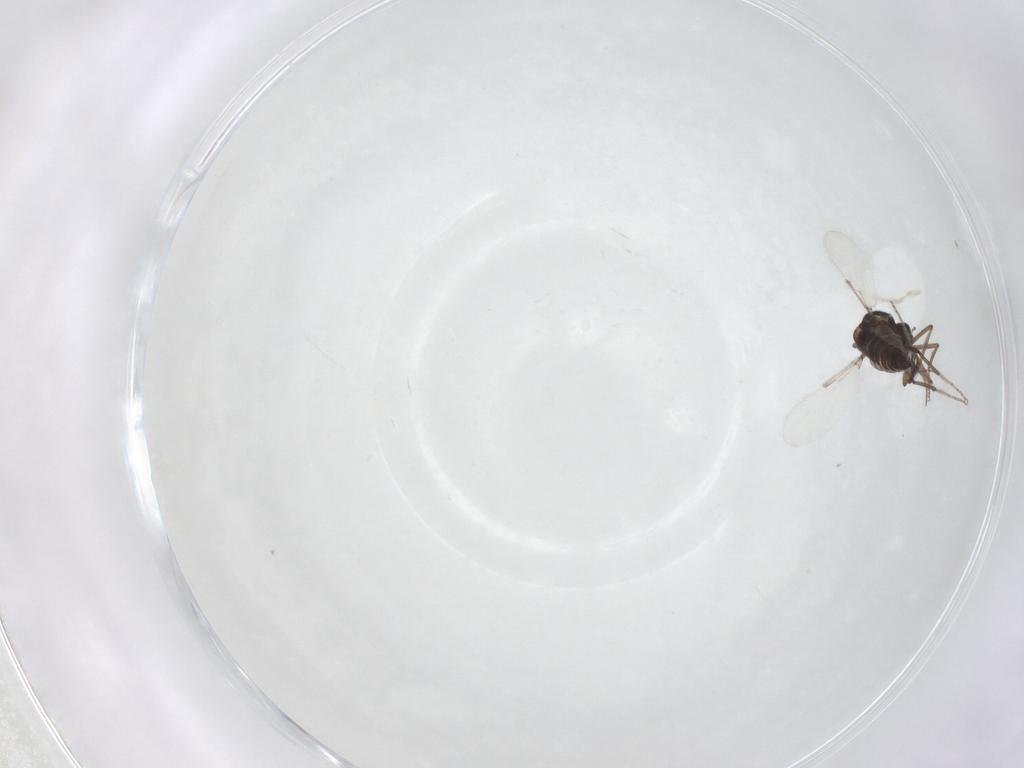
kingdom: Animalia
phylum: Arthropoda
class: Insecta
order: Diptera
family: Ceratopogonidae
